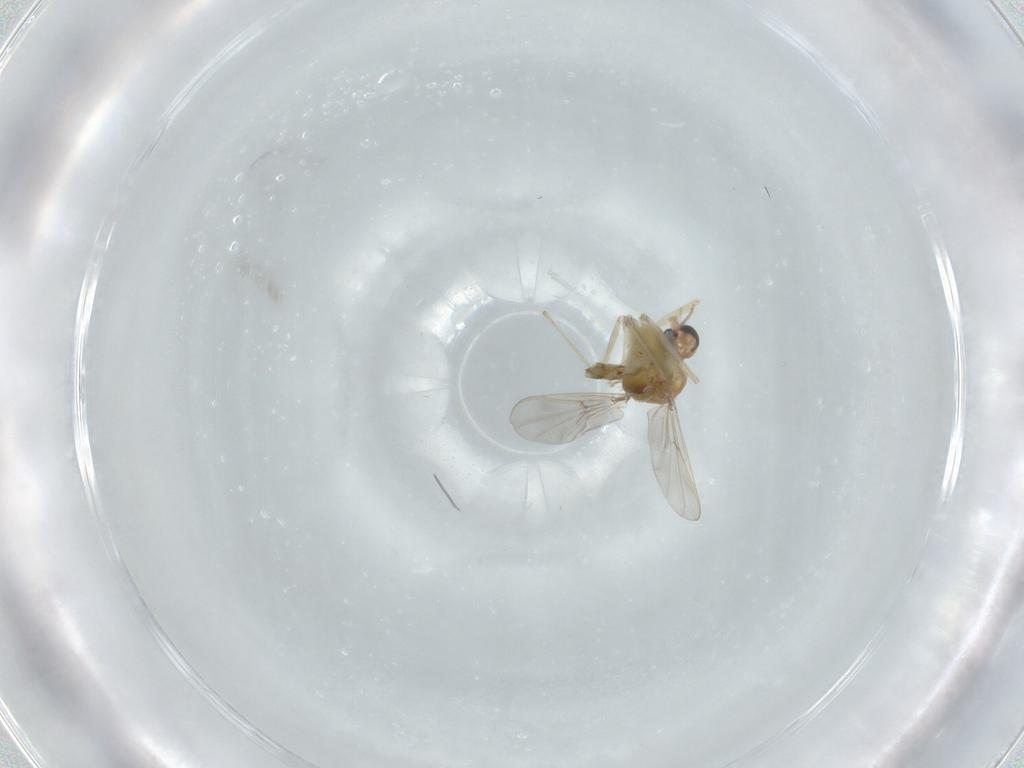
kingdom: Animalia
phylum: Arthropoda
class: Insecta
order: Diptera
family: Chironomidae
